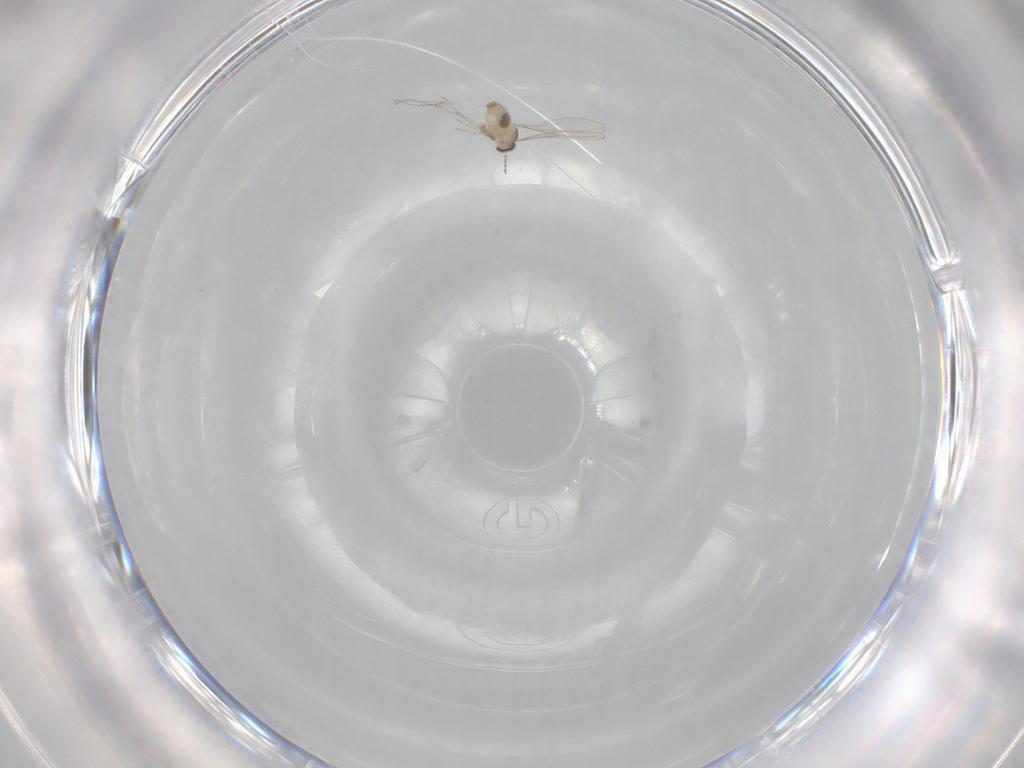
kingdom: Animalia
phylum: Arthropoda
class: Insecta
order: Diptera
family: Cecidomyiidae
